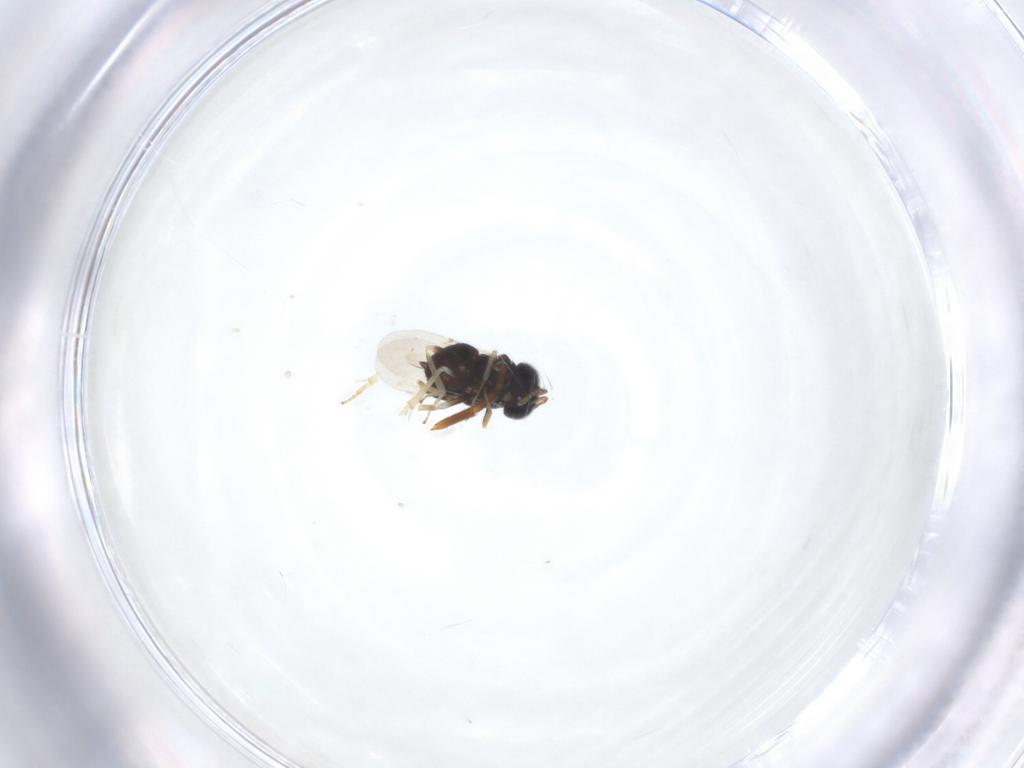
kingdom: Animalia
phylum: Arthropoda
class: Insecta
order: Hymenoptera
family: Ichneumonidae
